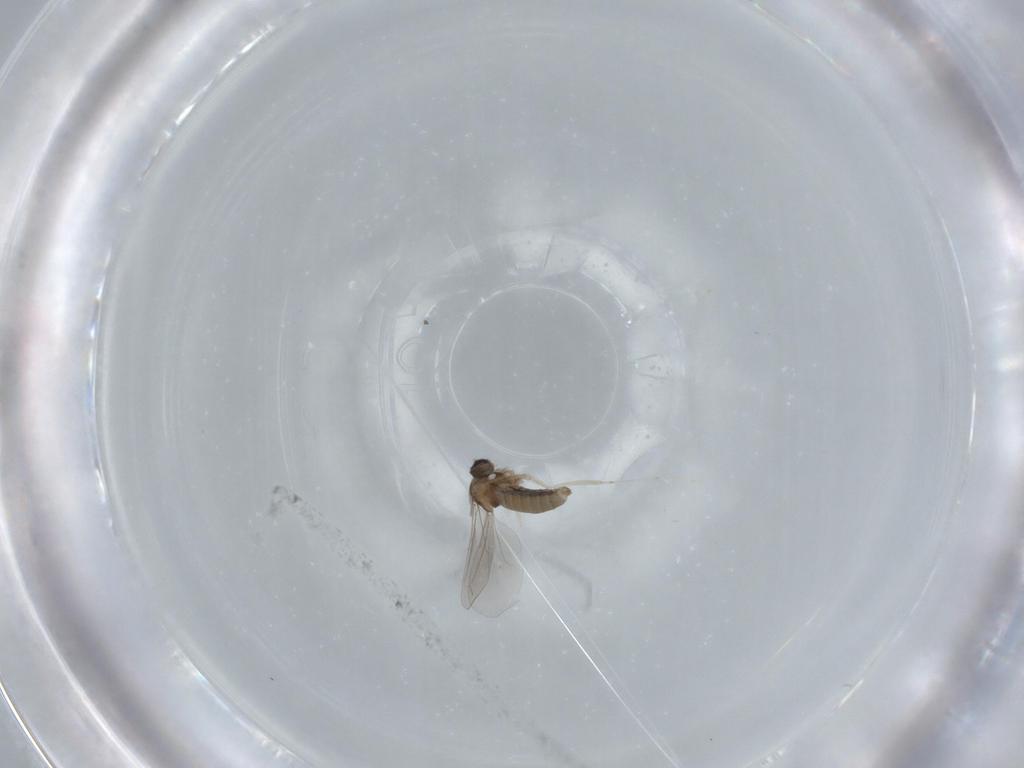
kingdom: Animalia
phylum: Arthropoda
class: Insecta
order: Diptera
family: Cecidomyiidae
